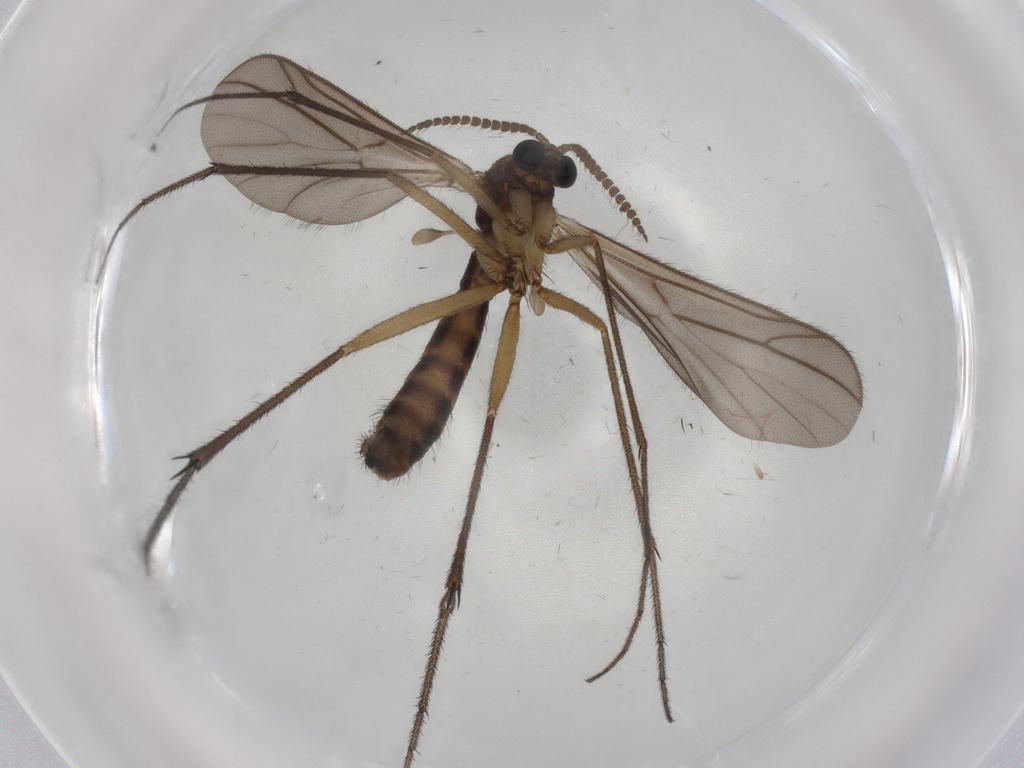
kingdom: Animalia
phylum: Arthropoda
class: Insecta
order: Diptera
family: Ditomyiidae
